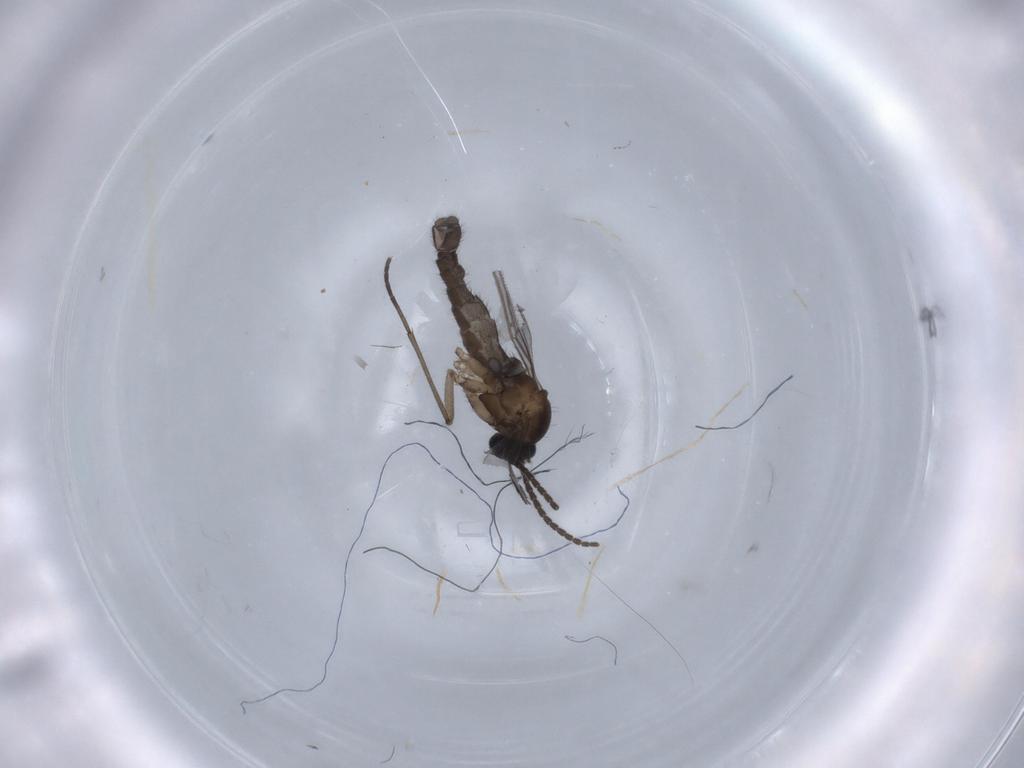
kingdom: Animalia
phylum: Arthropoda
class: Insecta
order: Diptera
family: Sciaridae
